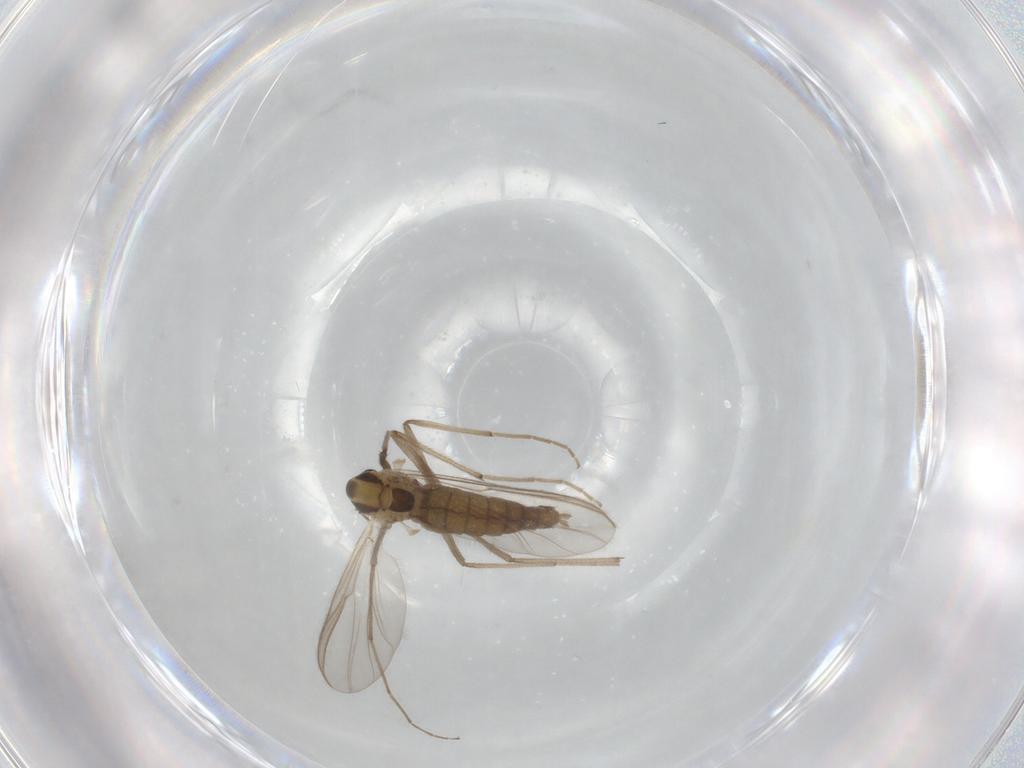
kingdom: Animalia
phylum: Arthropoda
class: Insecta
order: Diptera
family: Chironomidae
